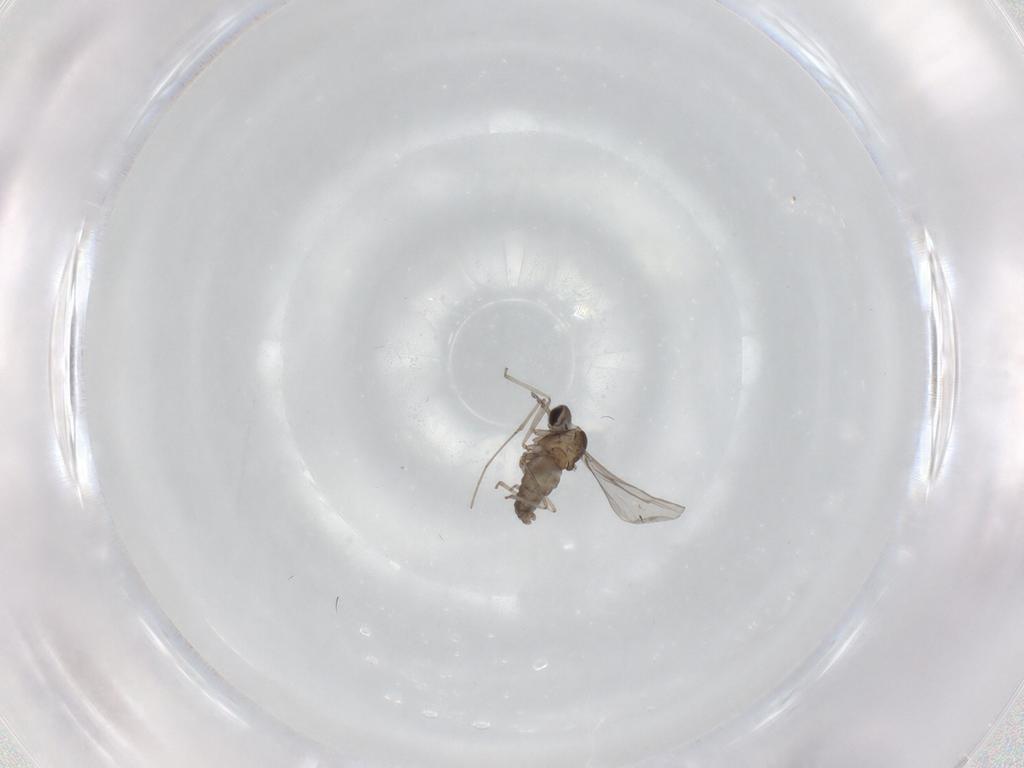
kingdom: Animalia
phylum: Arthropoda
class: Insecta
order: Diptera
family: Cecidomyiidae
